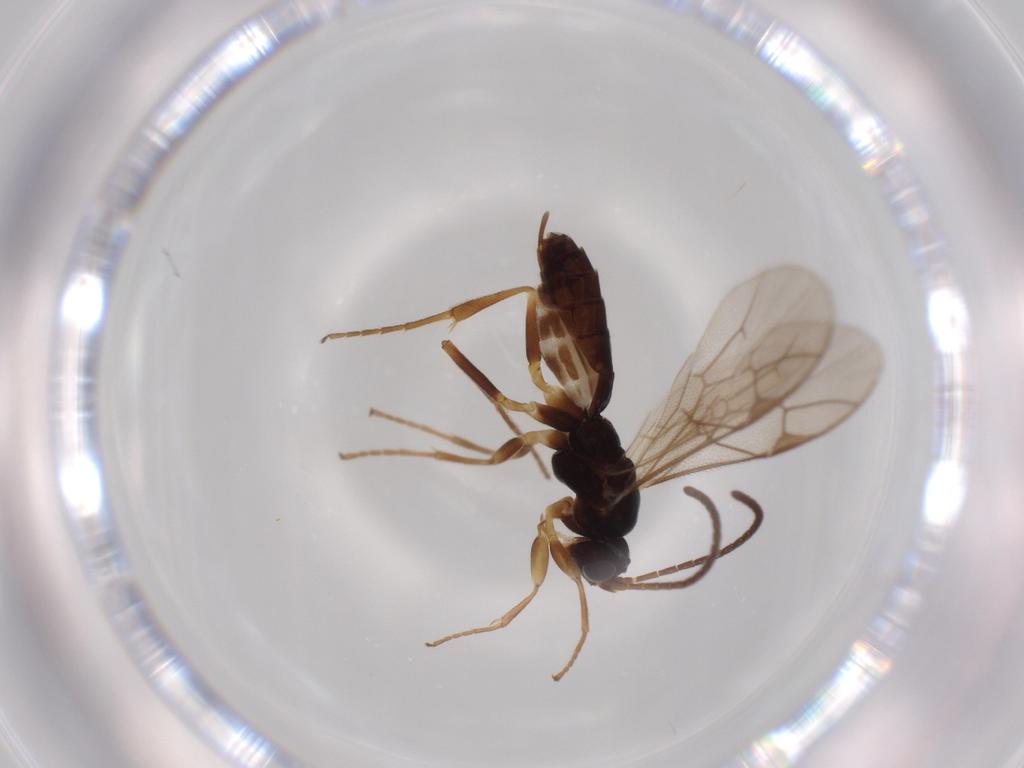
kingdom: Animalia
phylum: Arthropoda
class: Insecta
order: Hymenoptera
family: Ichneumonidae
